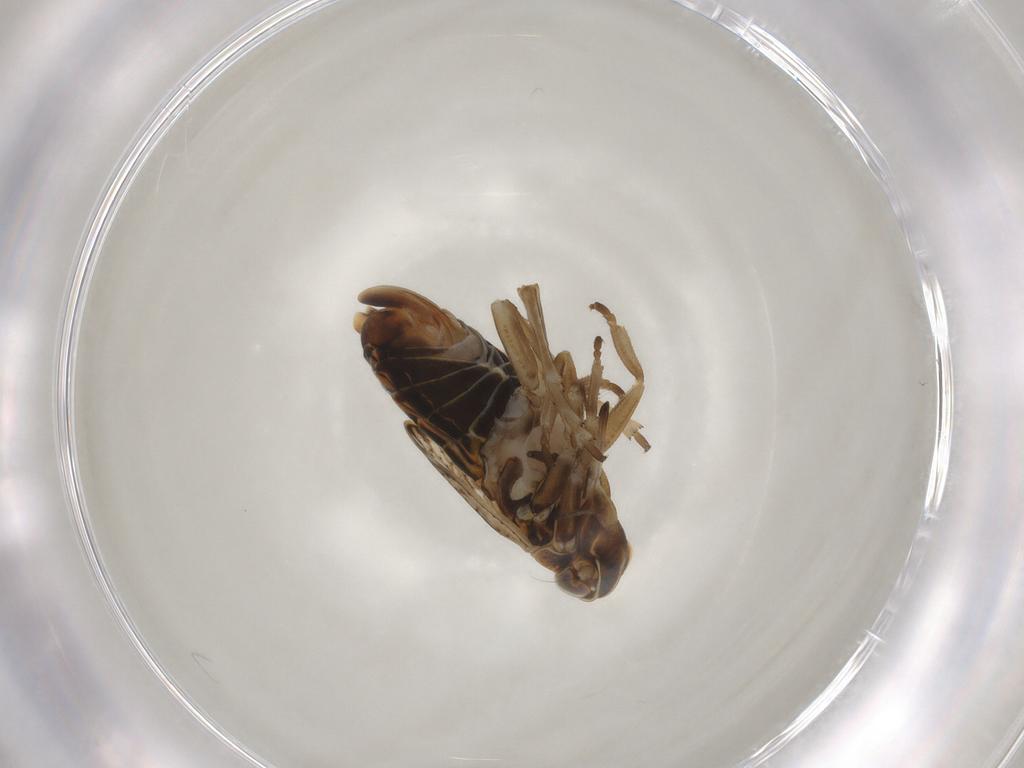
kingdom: Animalia
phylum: Arthropoda
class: Insecta
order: Hemiptera
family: Cixiidae
